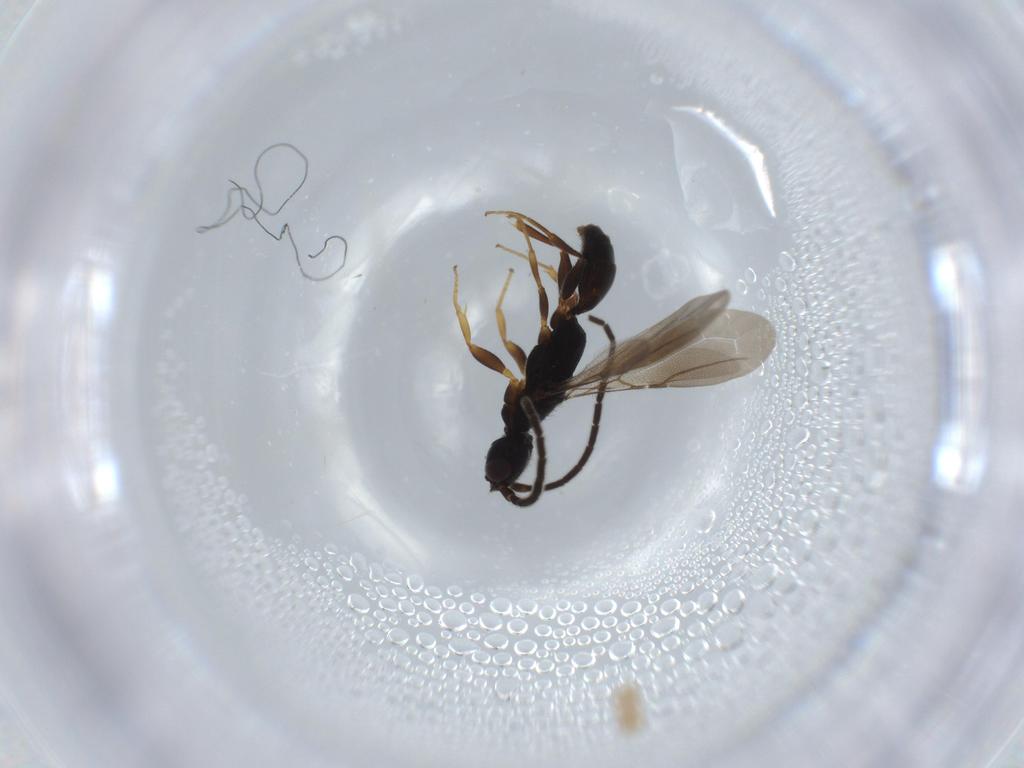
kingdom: Animalia
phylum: Arthropoda
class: Insecta
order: Hymenoptera
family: Bethylidae
